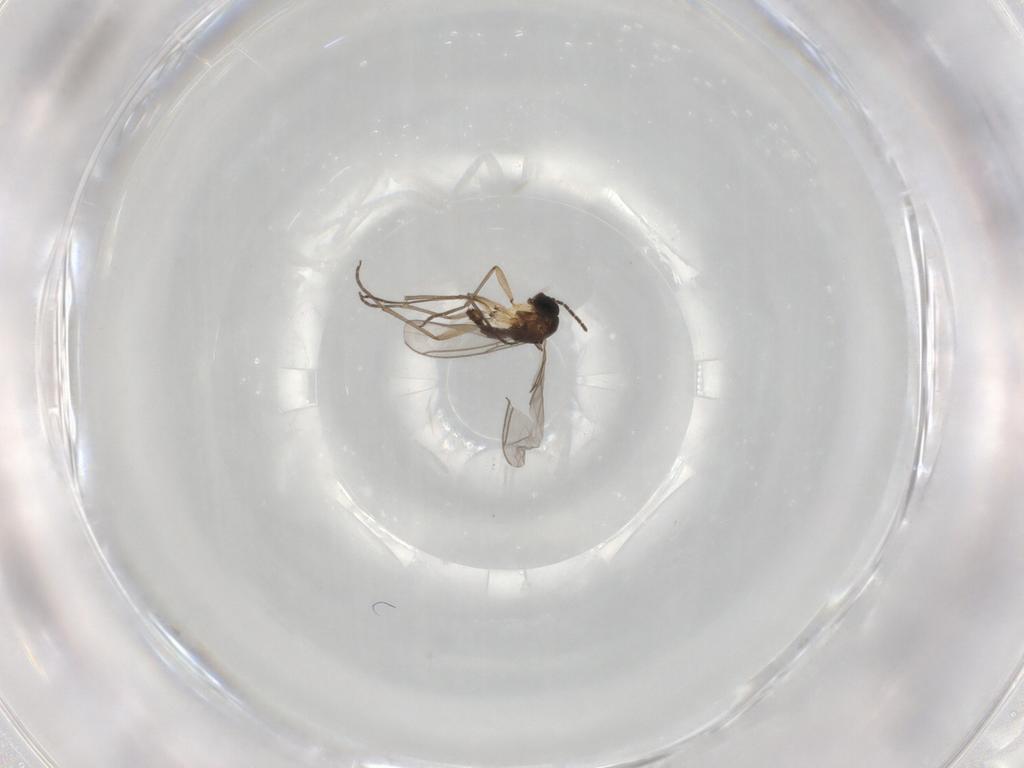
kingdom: Animalia
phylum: Arthropoda
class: Insecta
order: Diptera
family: Sciaridae
